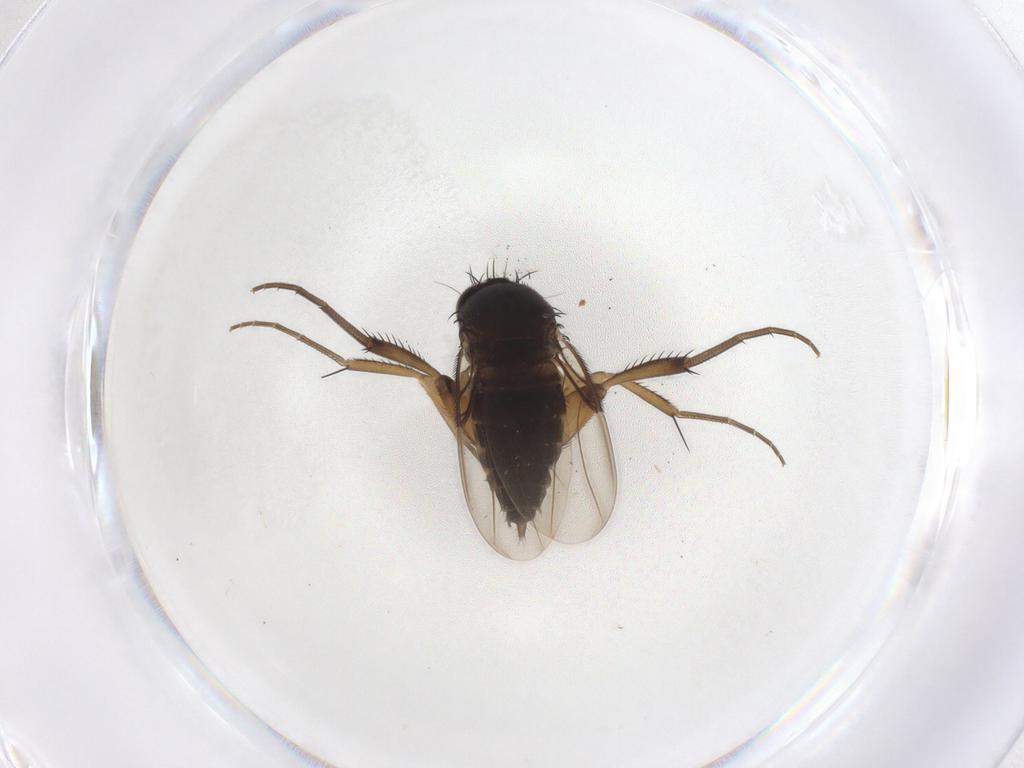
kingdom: Animalia
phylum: Arthropoda
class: Insecta
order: Diptera
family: Phoridae
